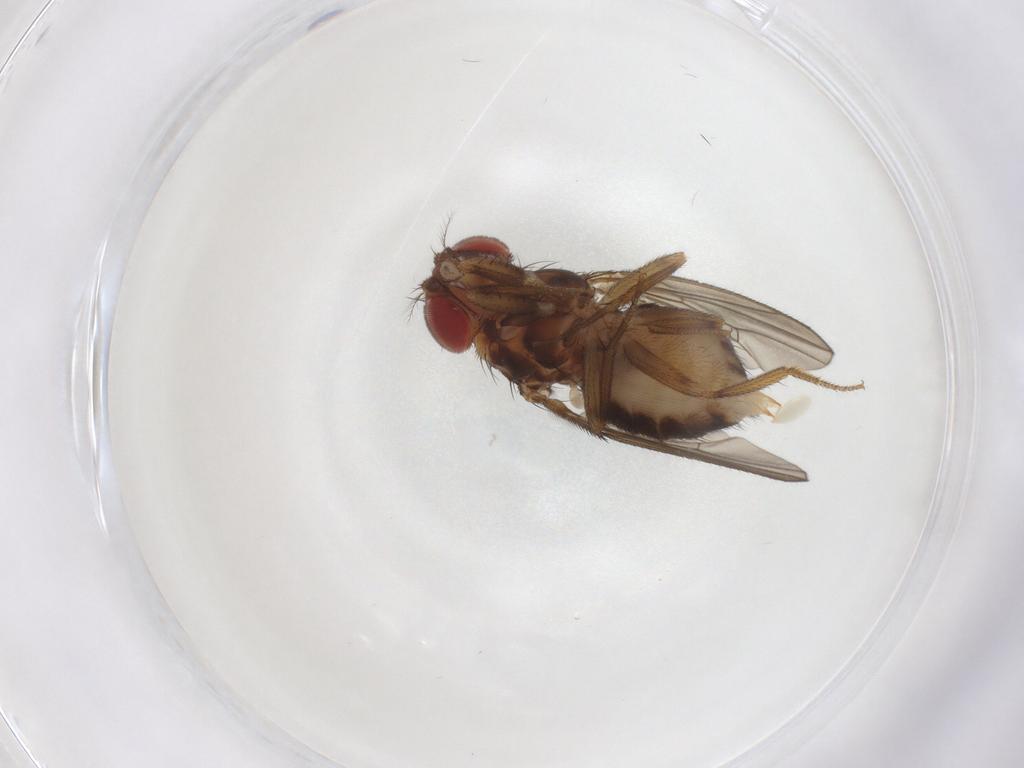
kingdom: Animalia
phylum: Arthropoda
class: Insecta
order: Diptera
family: Drosophilidae
